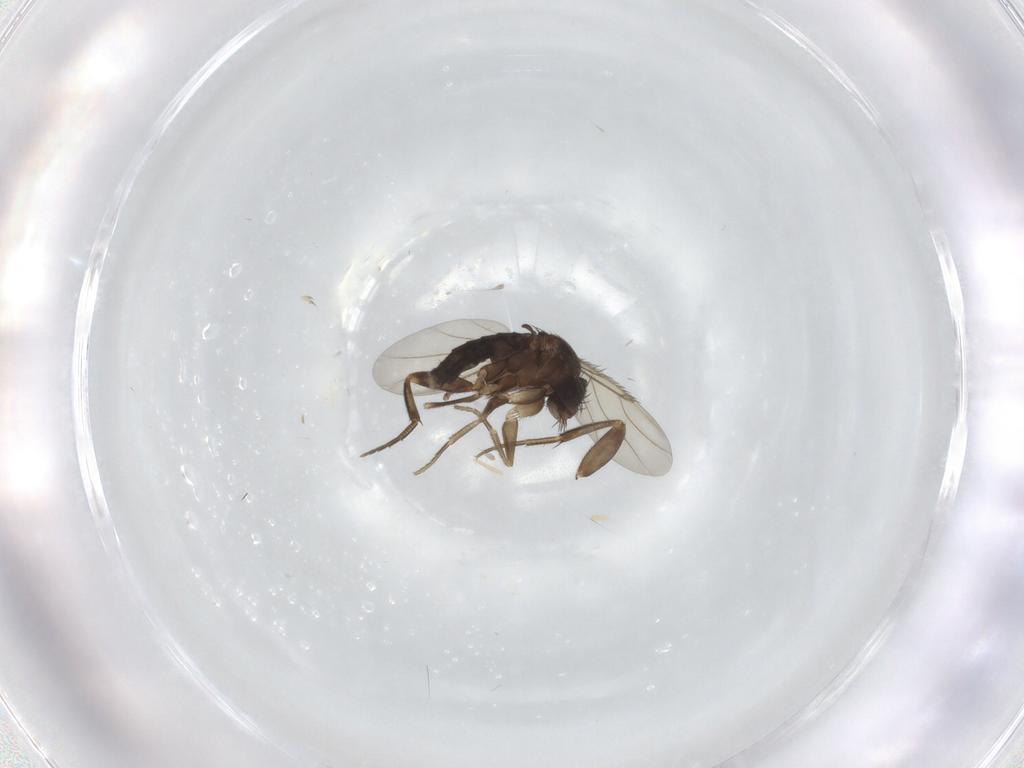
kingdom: Animalia
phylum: Arthropoda
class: Insecta
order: Diptera
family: Phoridae
